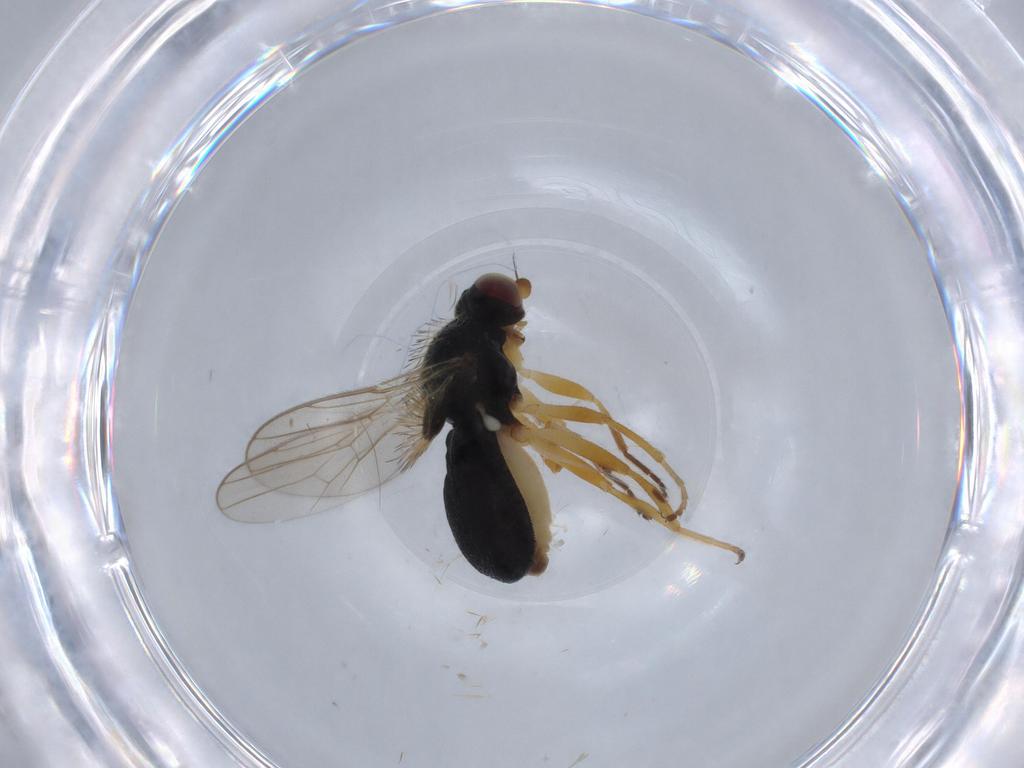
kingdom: Animalia
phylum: Arthropoda
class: Insecta
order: Diptera
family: Chloropidae
